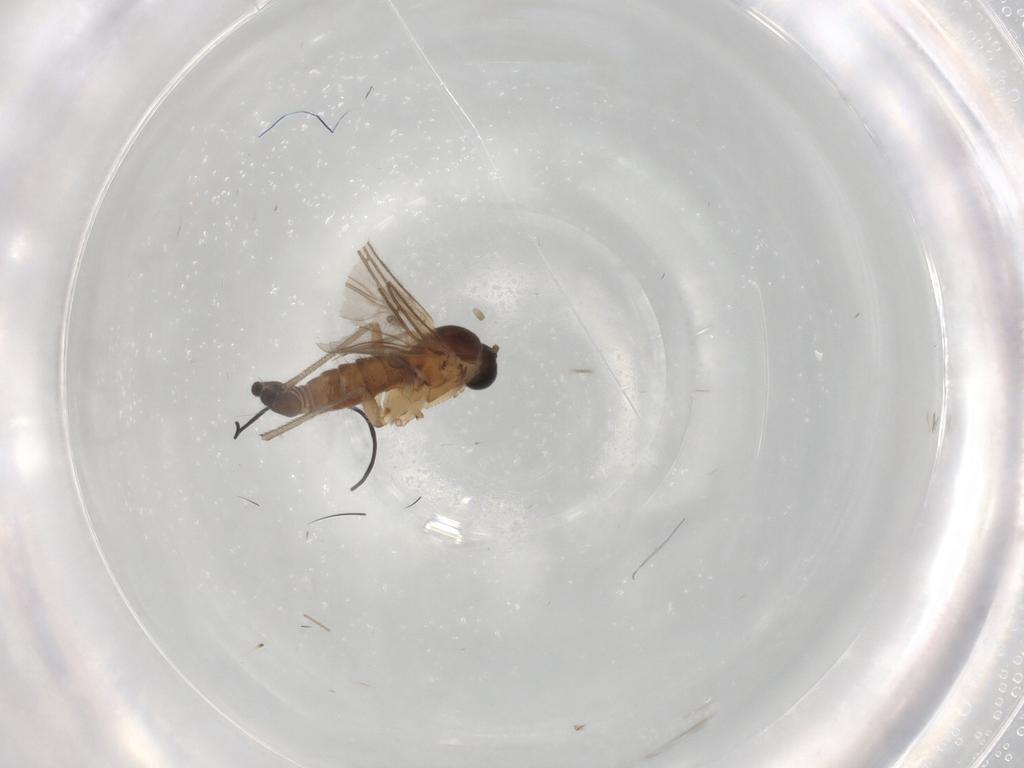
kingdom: Animalia
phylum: Arthropoda
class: Insecta
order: Diptera
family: Sciaridae
